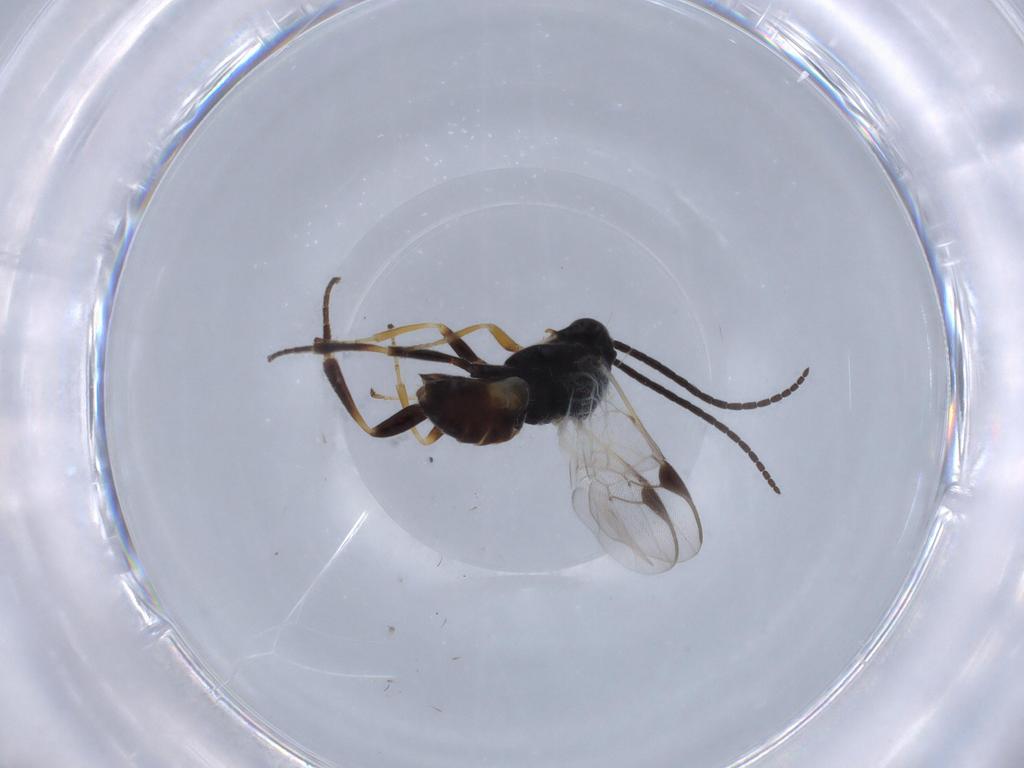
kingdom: Animalia
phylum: Arthropoda
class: Insecta
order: Hymenoptera
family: Braconidae
